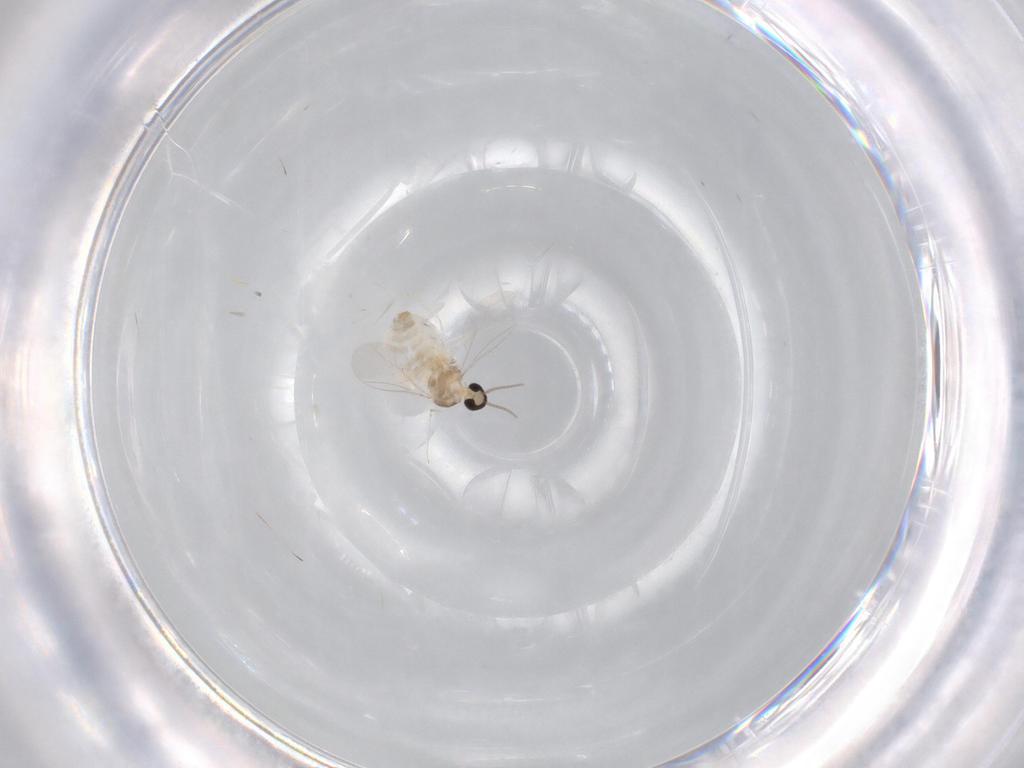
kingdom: Animalia
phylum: Arthropoda
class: Insecta
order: Diptera
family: Cecidomyiidae
